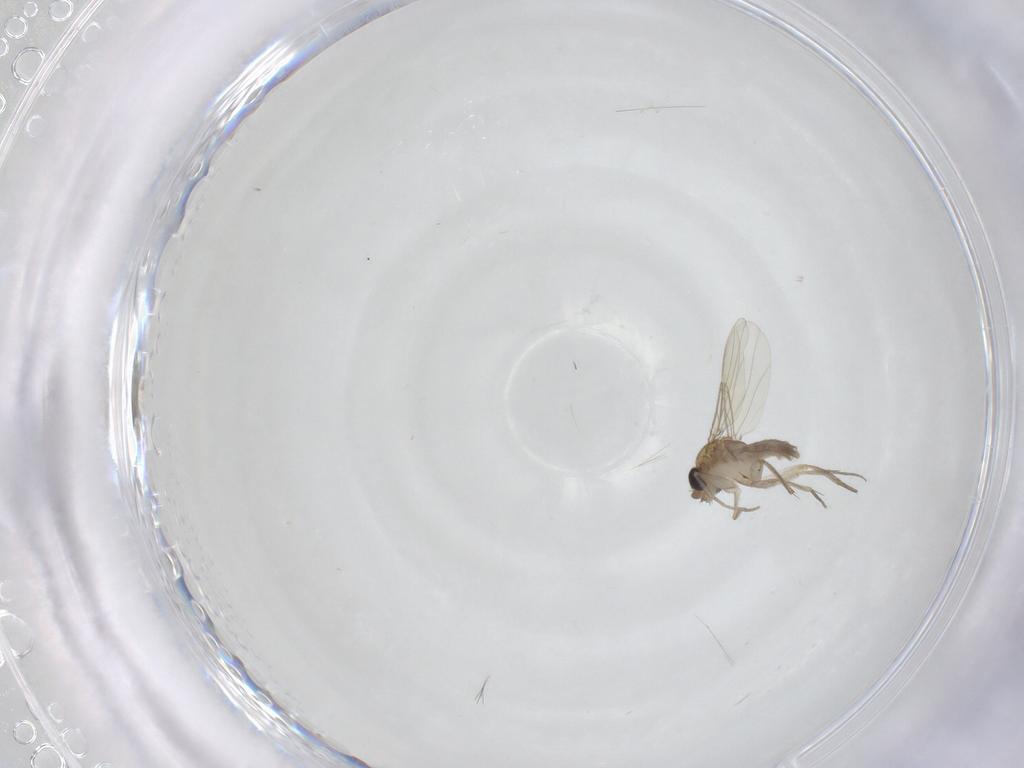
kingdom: Animalia
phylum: Arthropoda
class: Insecta
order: Diptera
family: Phoridae
